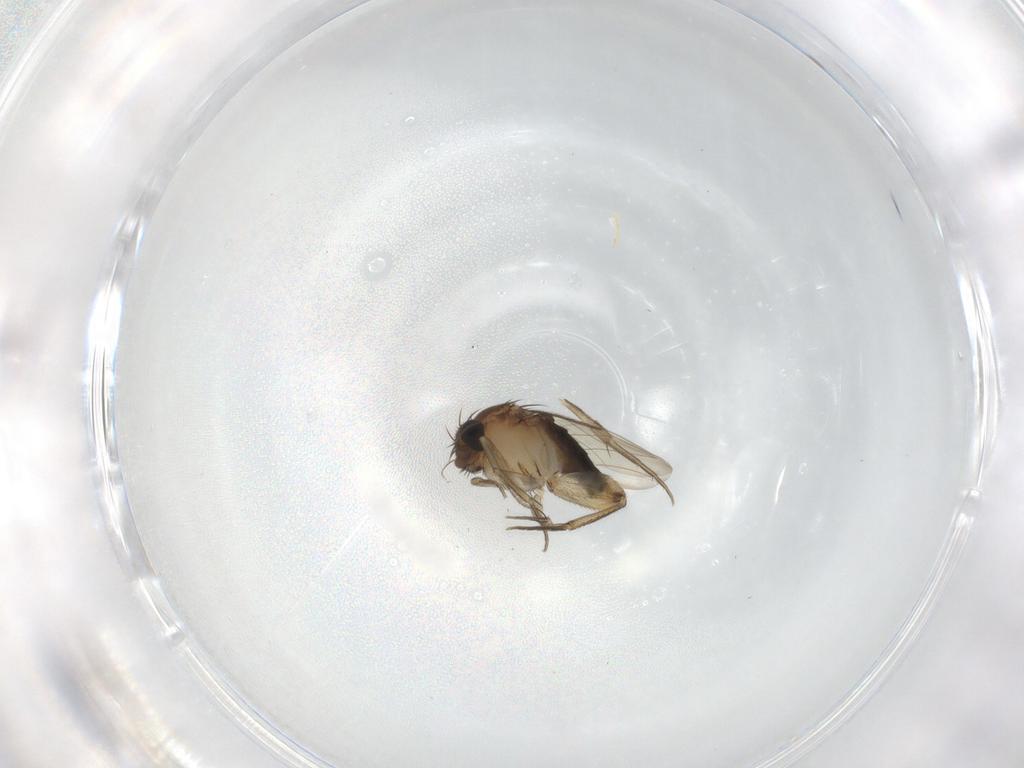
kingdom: Animalia
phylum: Arthropoda
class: Insecta
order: Diptera
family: Phoridae
